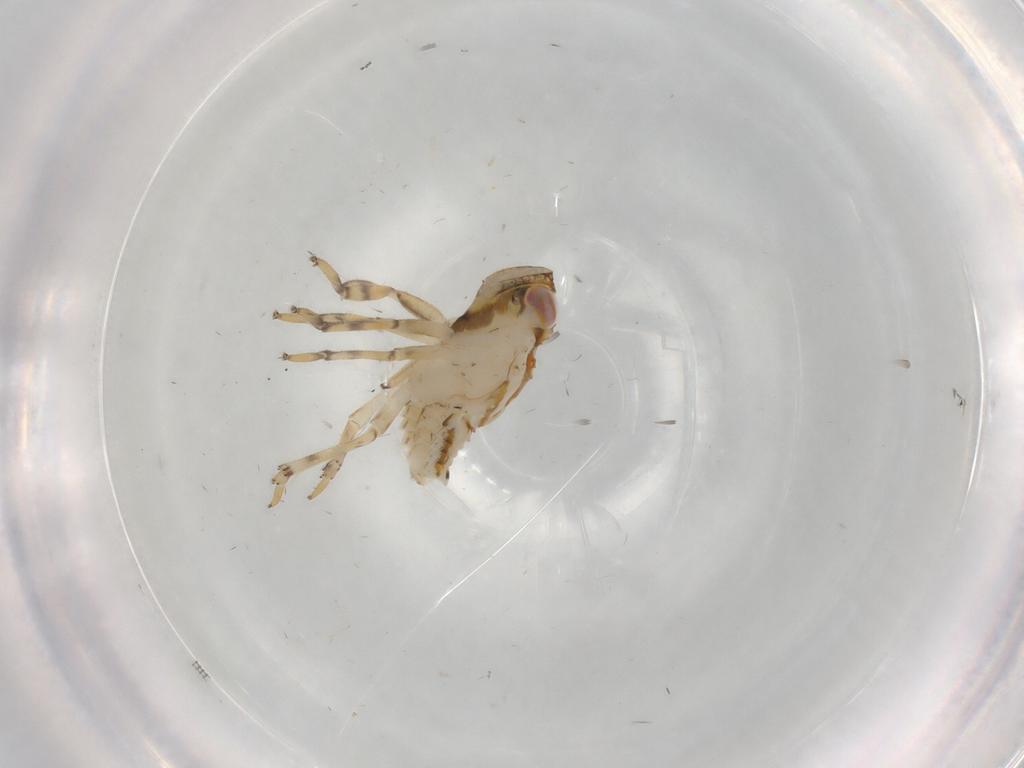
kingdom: Animalia
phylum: Arthropoda
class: Insecta
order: Hemiptera
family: Issidae
